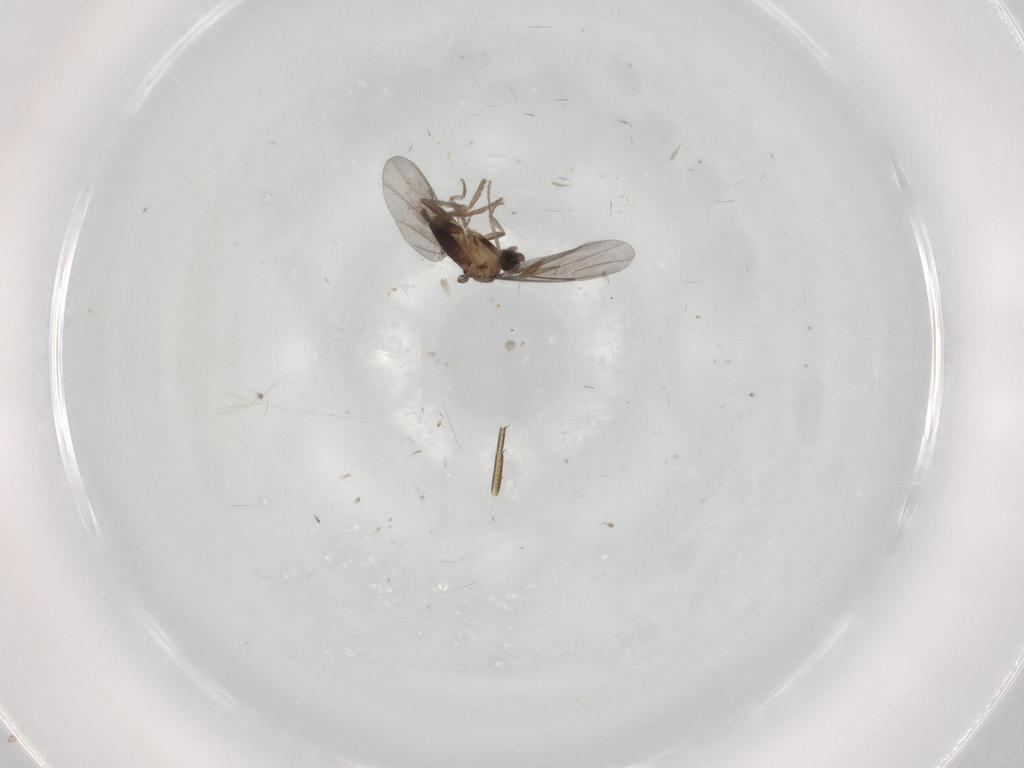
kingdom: Animalia
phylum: Arthropoda
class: Insecta
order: Diptera
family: Phoridae
